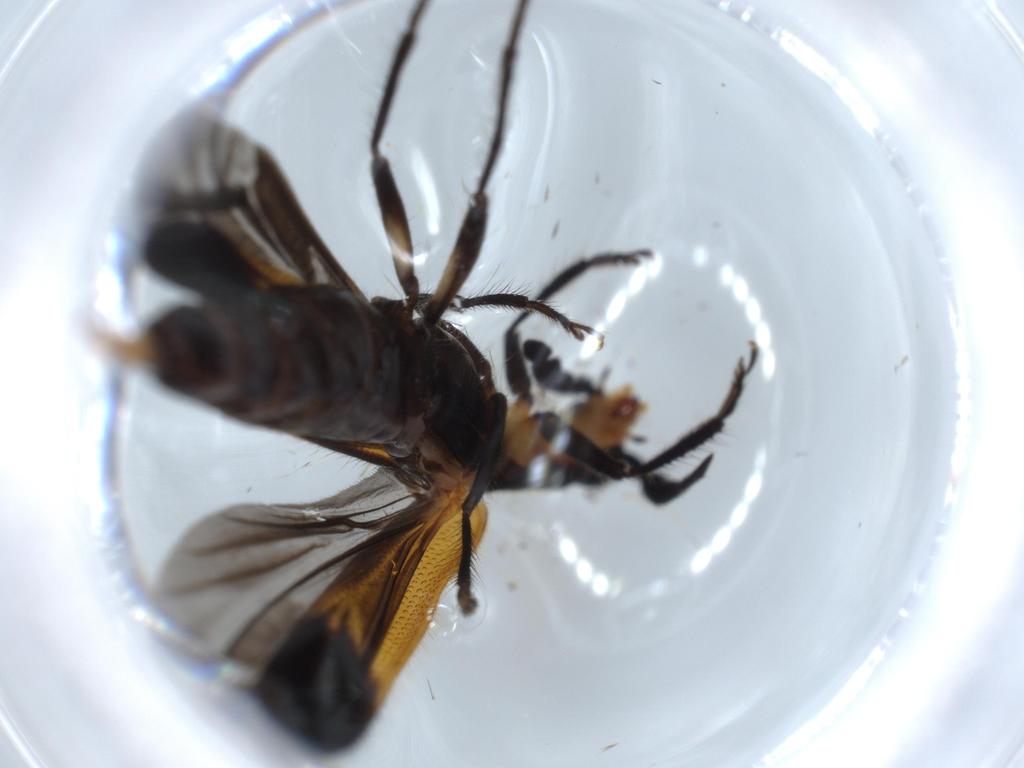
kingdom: Animalia
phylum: Arthropoda
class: Insecta
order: Coleoptera
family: Cleridae
